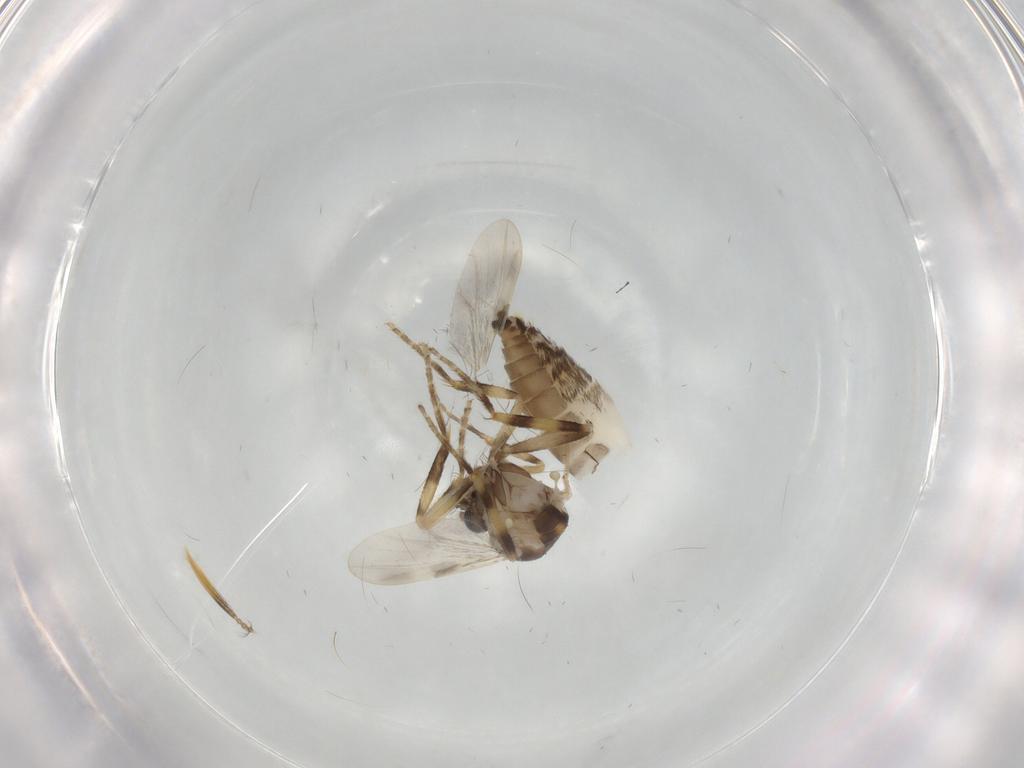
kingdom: Animalia
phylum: Arthropoda
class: Insecta
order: Diptera
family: Ceratopogonidae
